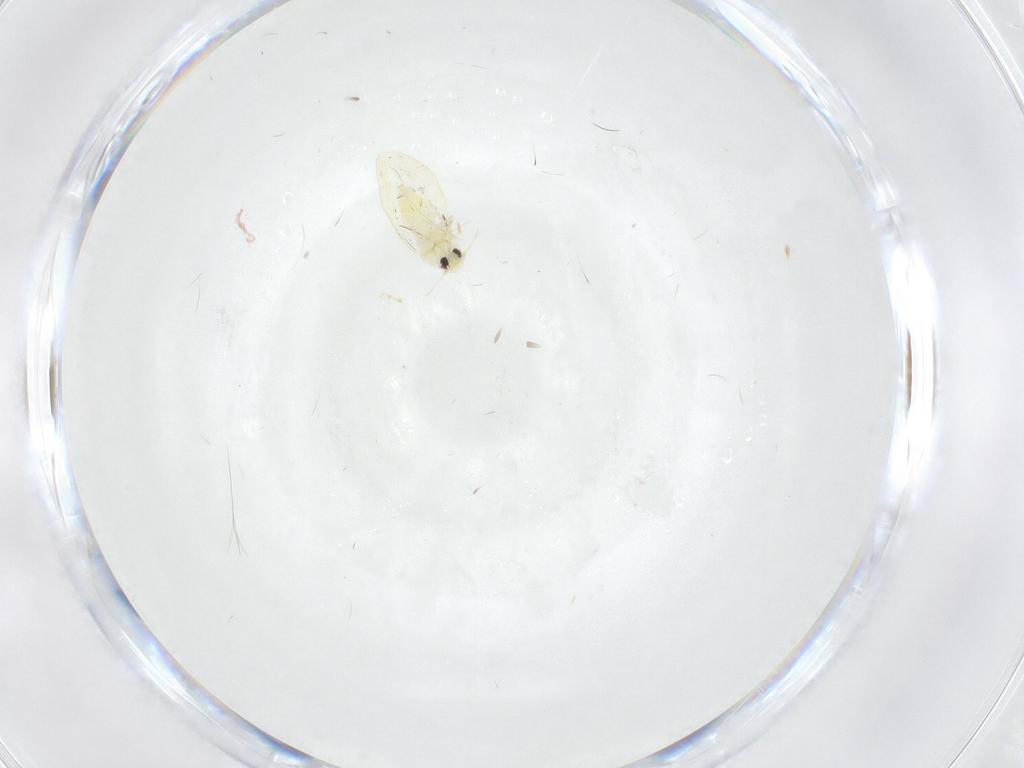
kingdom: Animalia
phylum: Arthropoda
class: Insecta
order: Hemiptera
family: Aleyrodidae
